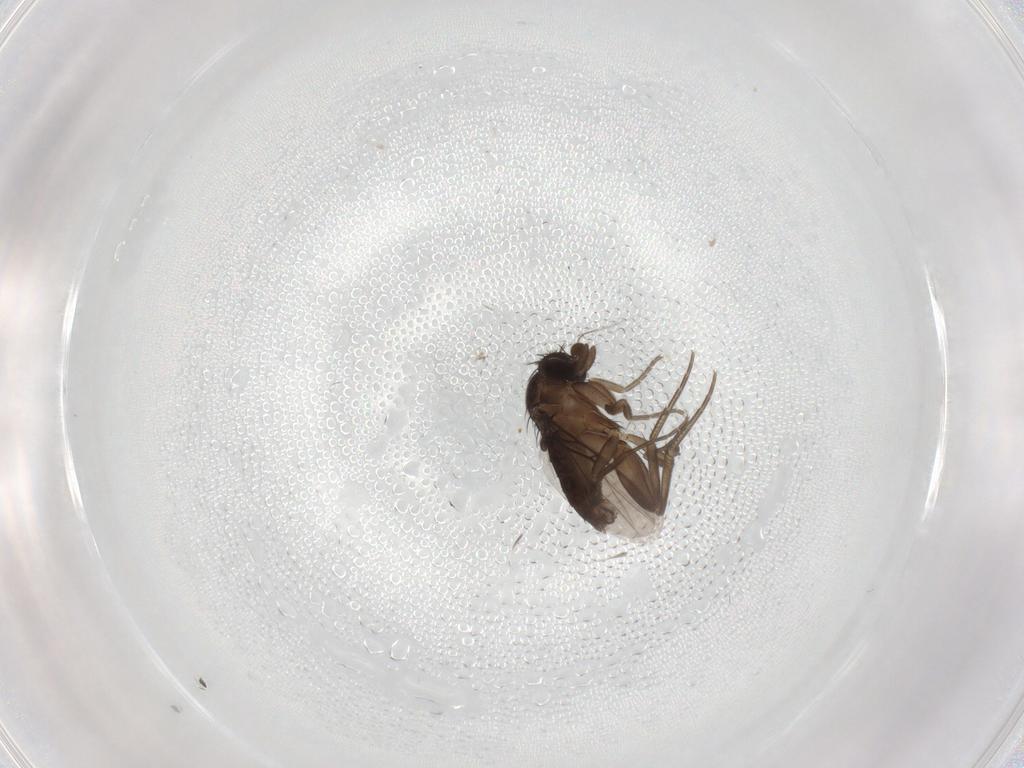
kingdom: Animalia
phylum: Arthropoda
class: Insecta
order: Diptera
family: Phoridae
